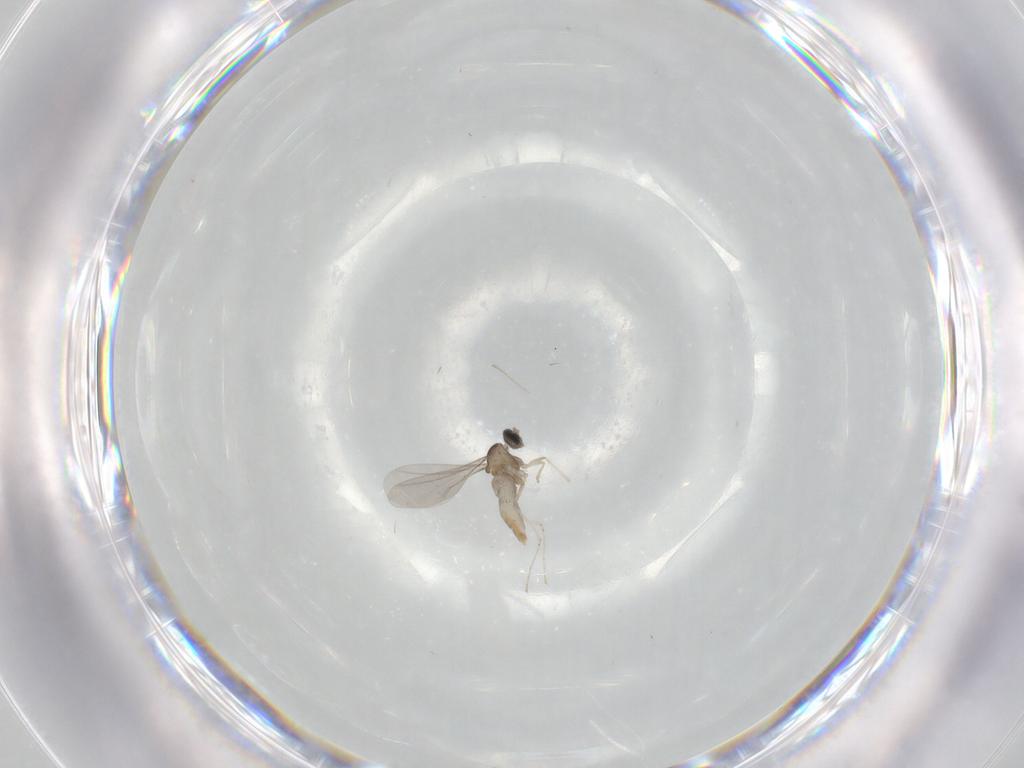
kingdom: Animalia
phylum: Arthropoda
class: Insecta
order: Diptera
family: Cecidomyiidae
